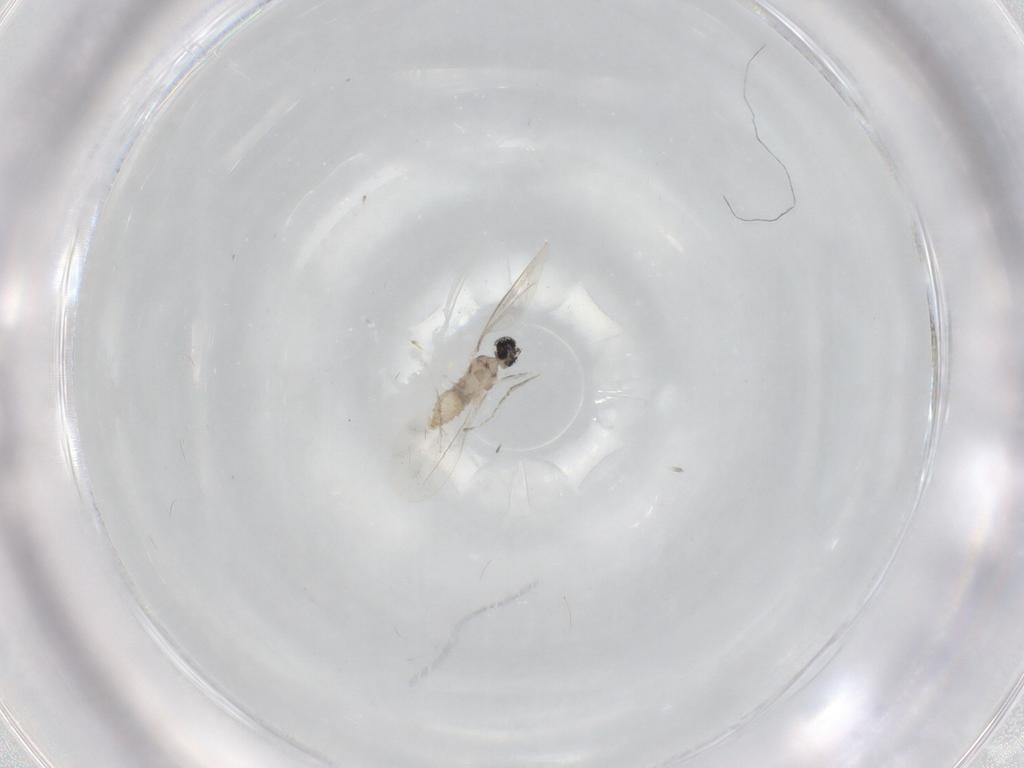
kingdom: Animalia
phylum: Arthropoda
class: Insecta
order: Diptera
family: Cecidomyiidae
